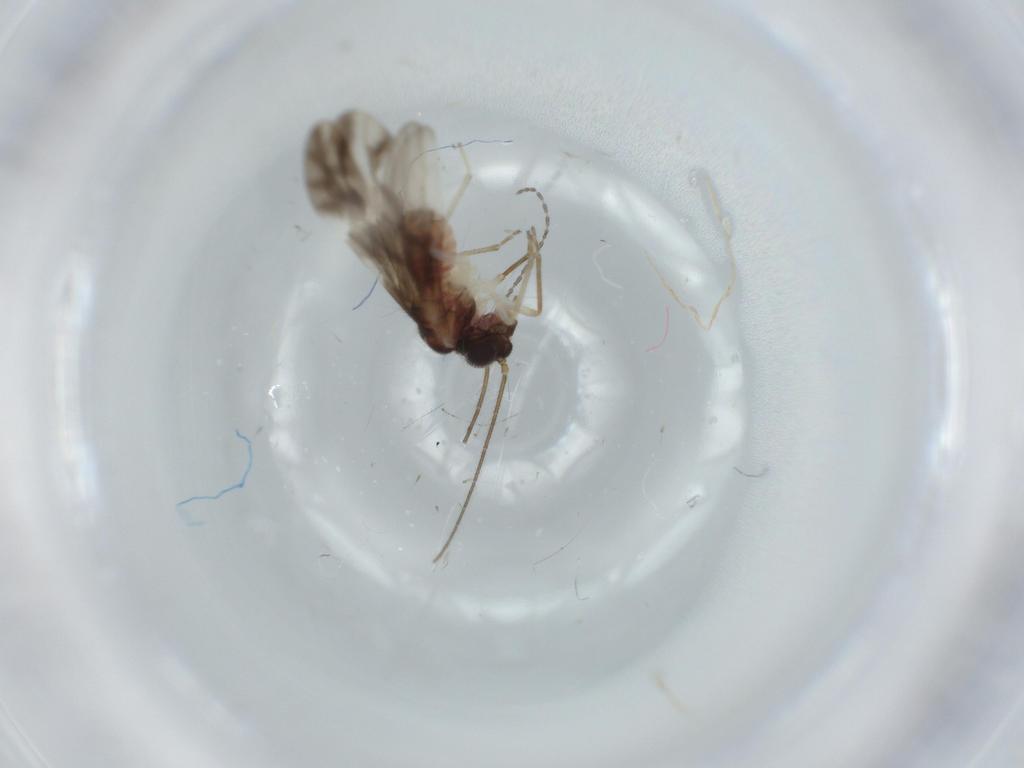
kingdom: Animalia
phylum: Arthropoda
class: Insecta
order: Psocodea
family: Caeciliusidae
